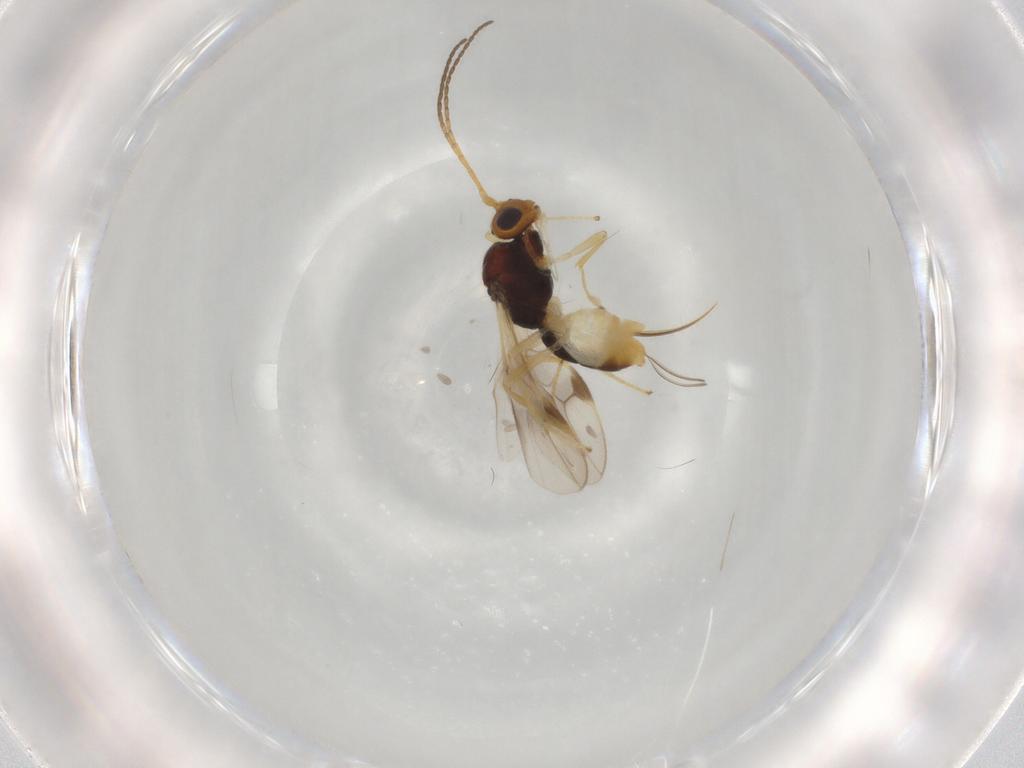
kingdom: Animalia
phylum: Arthropoda
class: Insecta
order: Hymenoptera
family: Braconidae
